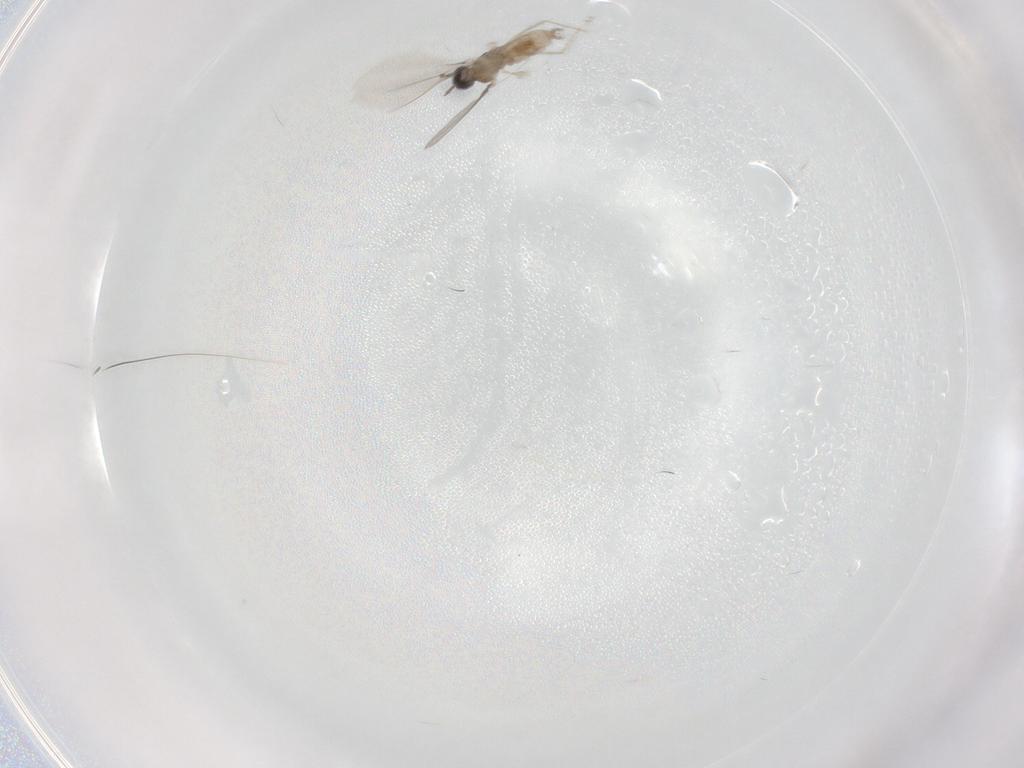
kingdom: Animalia
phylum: Arthropoda
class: Insecta
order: Diptera
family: Cecidomyiidae
